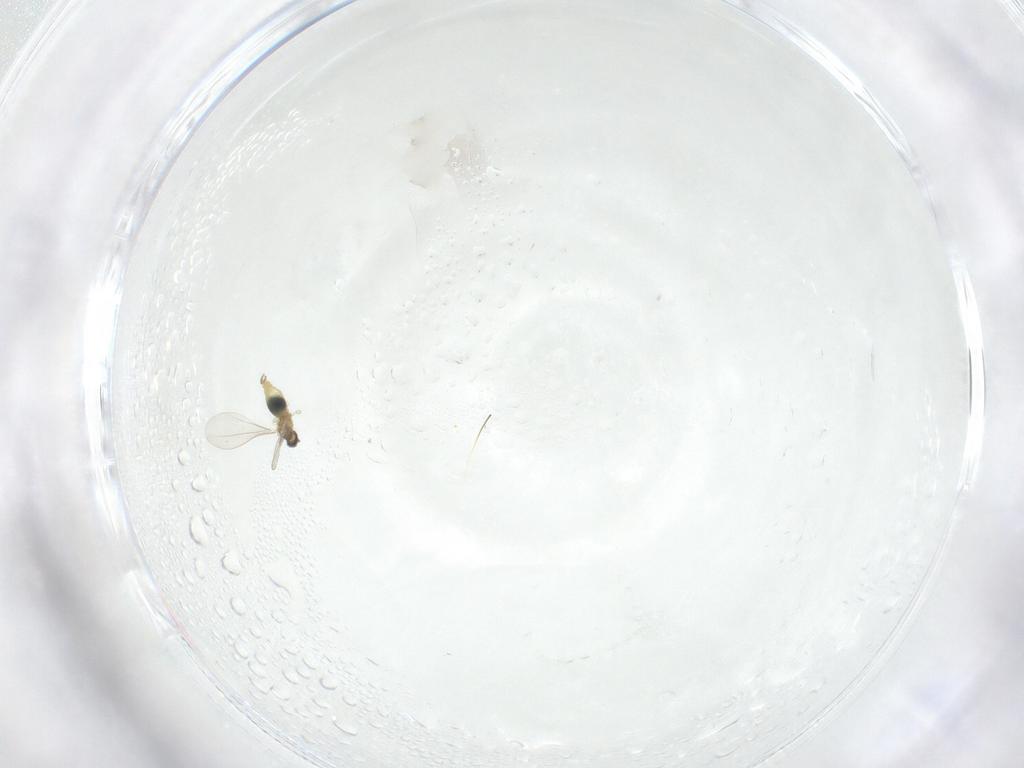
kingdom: Animalia
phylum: Arthropoda
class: Insecta
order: Diptera
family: Cecidomyiidae
